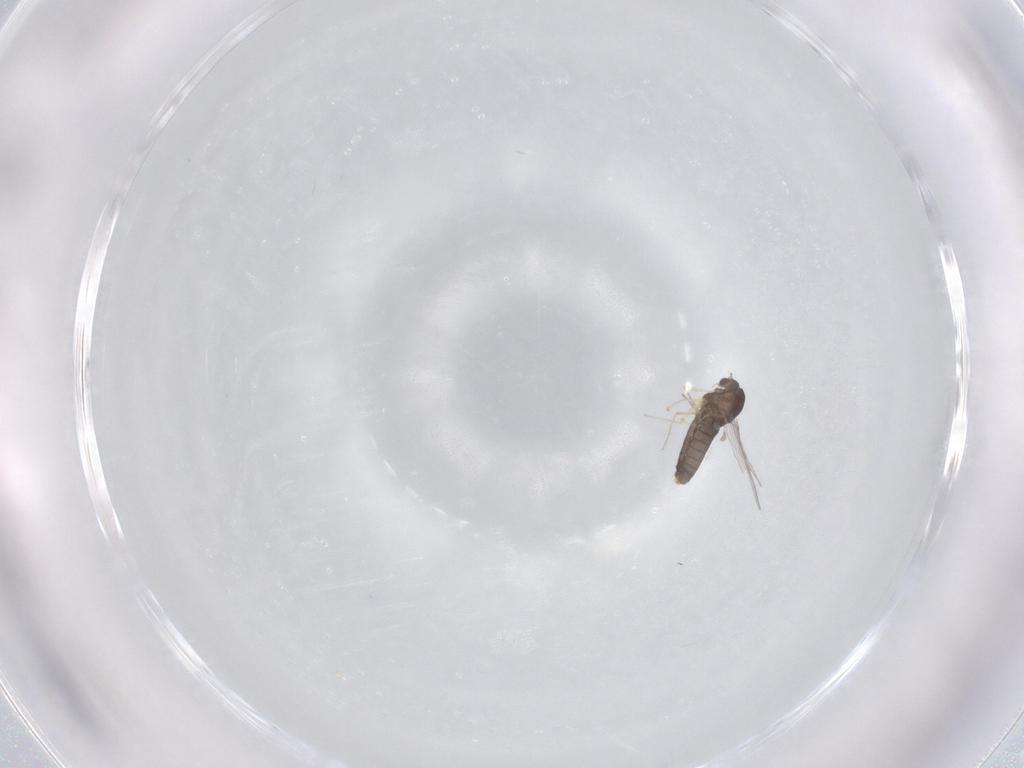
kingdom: Animalia
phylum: Arthropoda
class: Insecta
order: Diptera
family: Chironomidae
